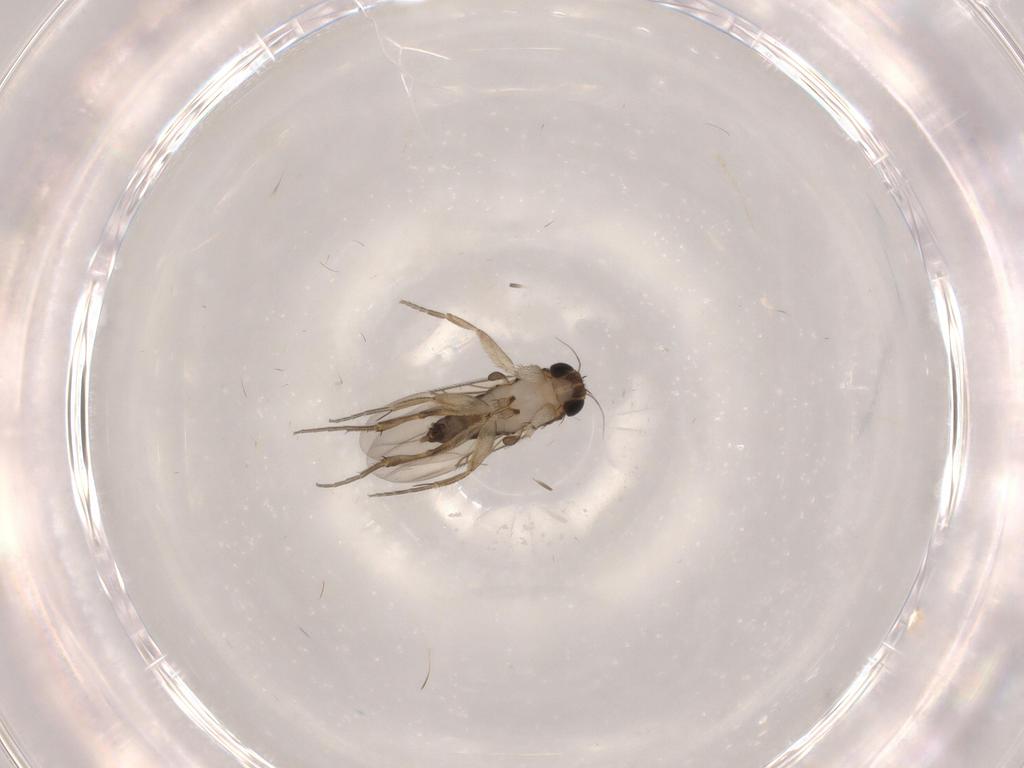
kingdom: Animalia
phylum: Arthropoda
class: Insecta
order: Diptera
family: Phoridae
